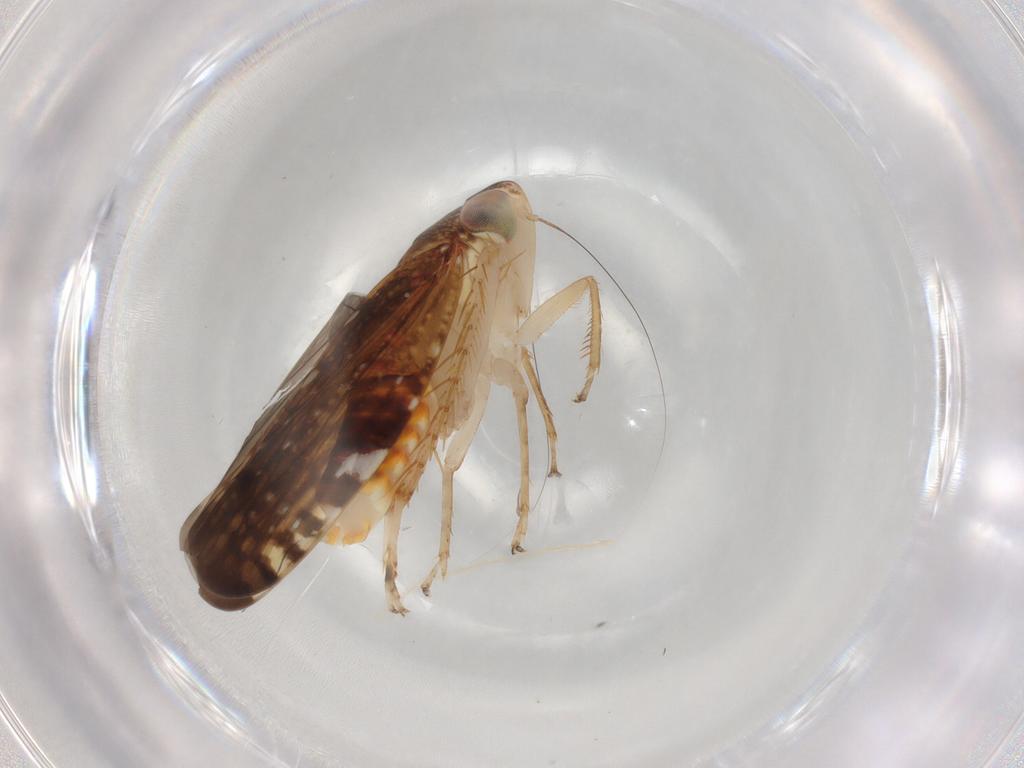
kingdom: Animalia
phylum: Arthropoda
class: Insecta
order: Hemiptera
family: Cicadellidae
